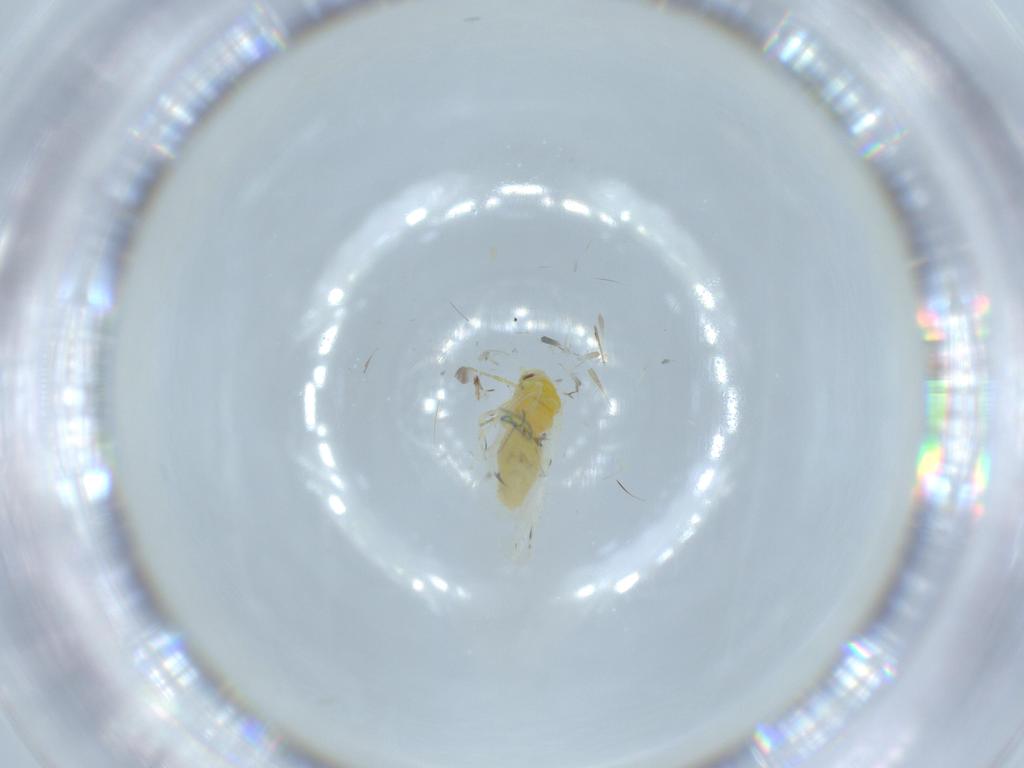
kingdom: Animalia
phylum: Arthropoda
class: Insecta
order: Hemiptera
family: Aleyrodidae
